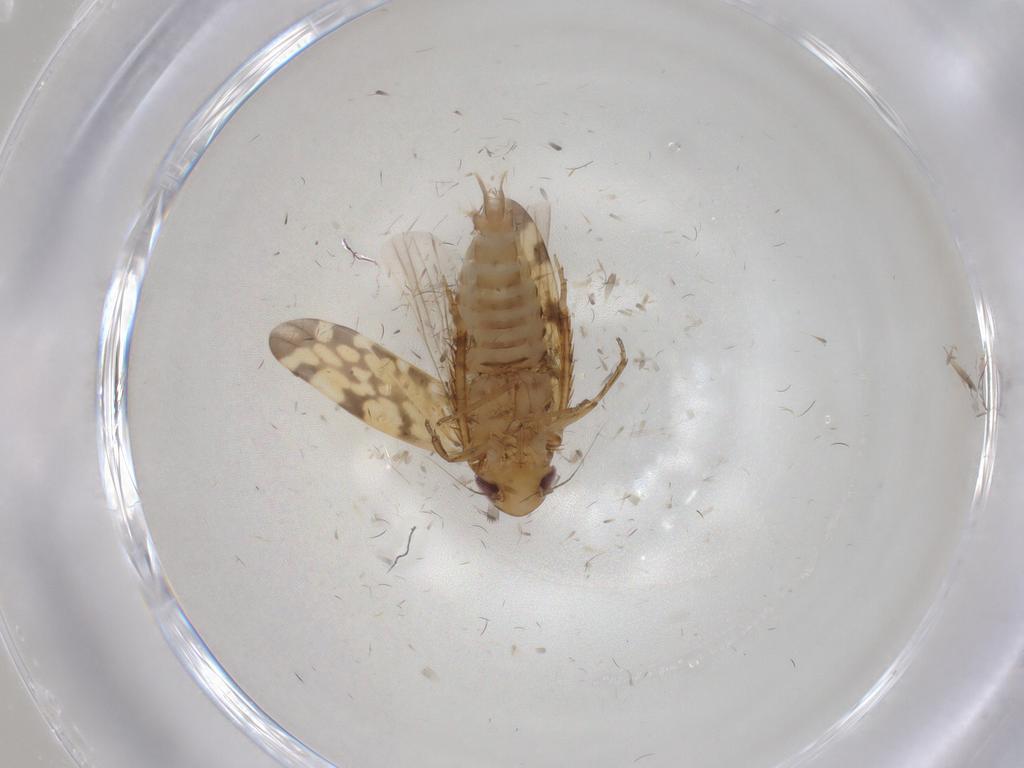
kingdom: Animalia
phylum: Arthropoda
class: Insecta
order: Hemiptera
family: Cicadellidae
